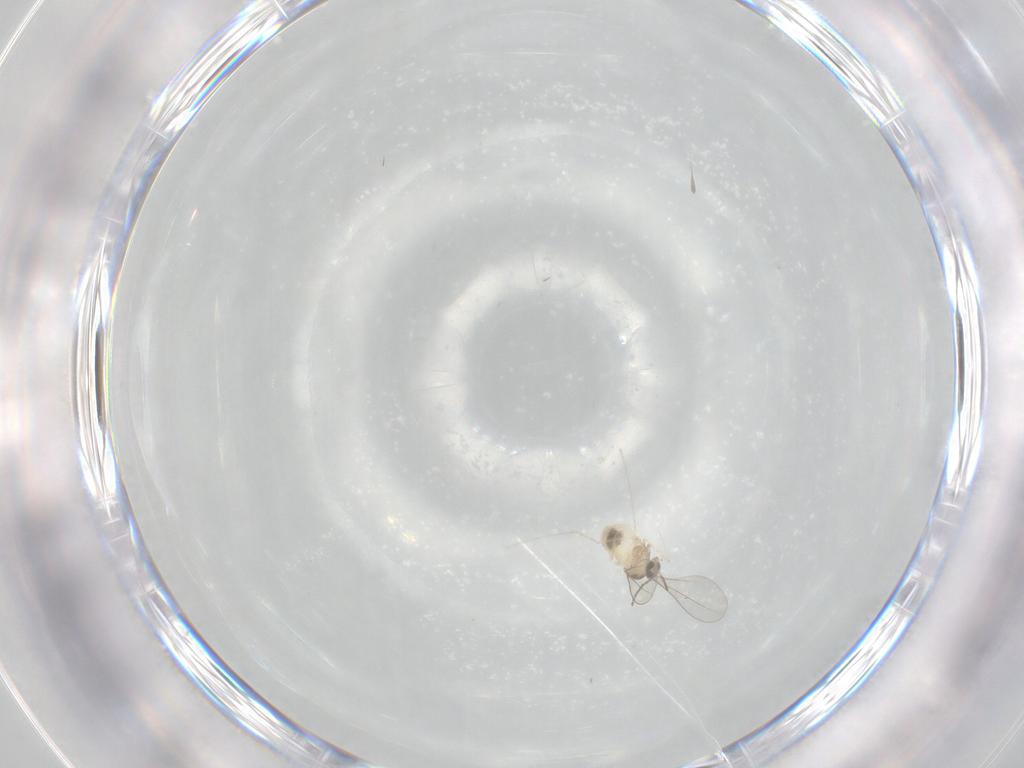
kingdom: Animalia
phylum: Arthropoda
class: Insecta
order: Diptera
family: Cecidomyiidae
